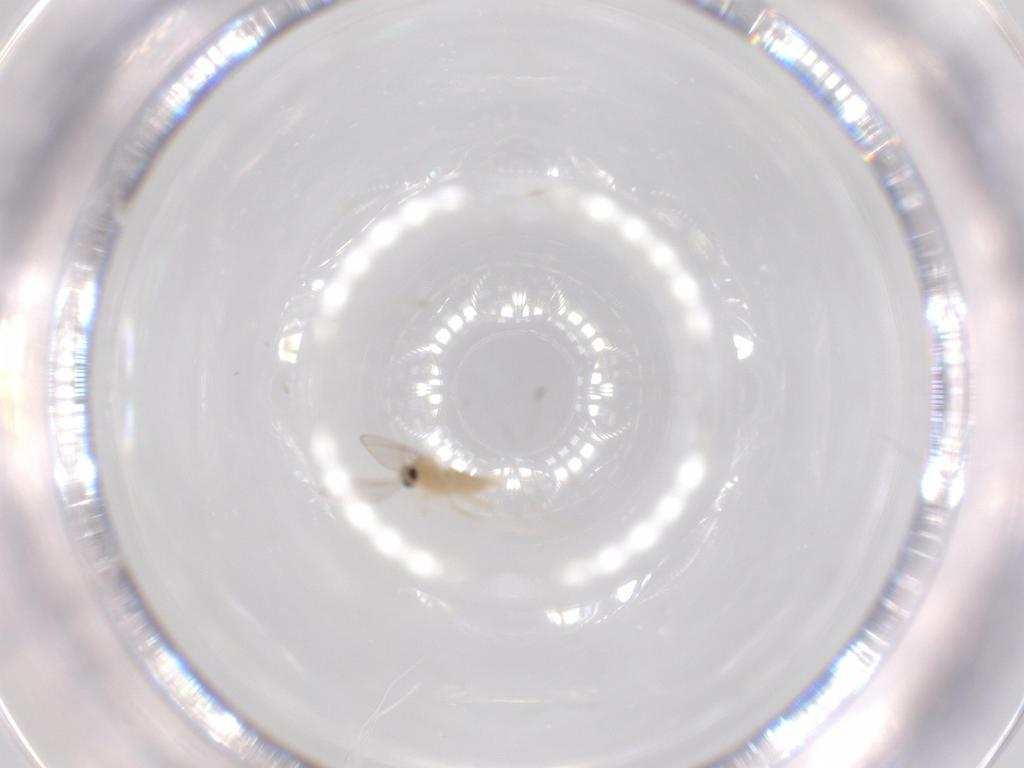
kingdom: Animalia
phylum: Arthropoda
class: Insecta
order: Diptera
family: Cecidomyiidae
